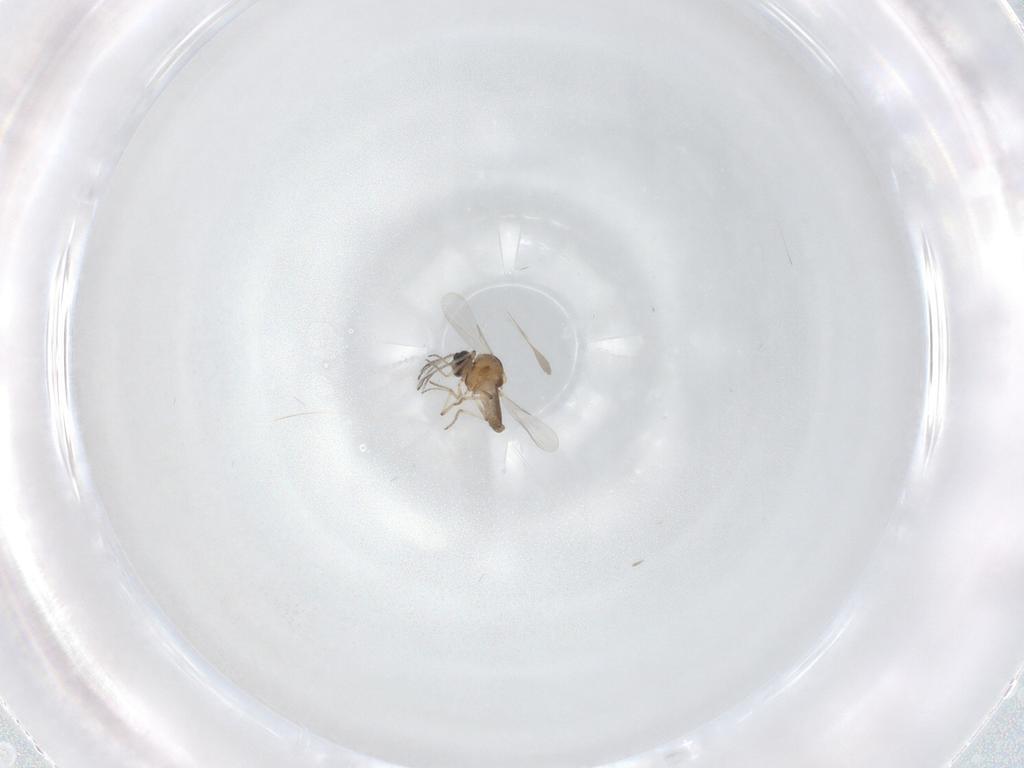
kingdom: Animalia
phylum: Arthropoda
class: Insecta
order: Diptera
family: Ceratopogonidae
